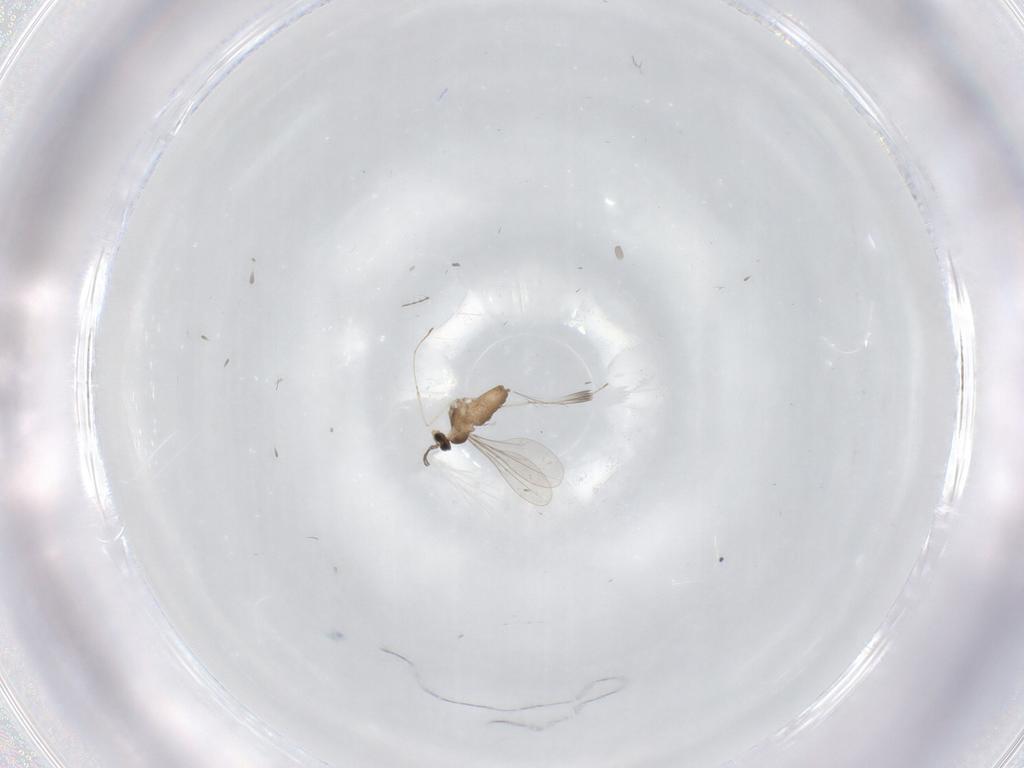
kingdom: Animalia
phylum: Arthropoda
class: Insecta
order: Diptera
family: Cecidomyiidae
